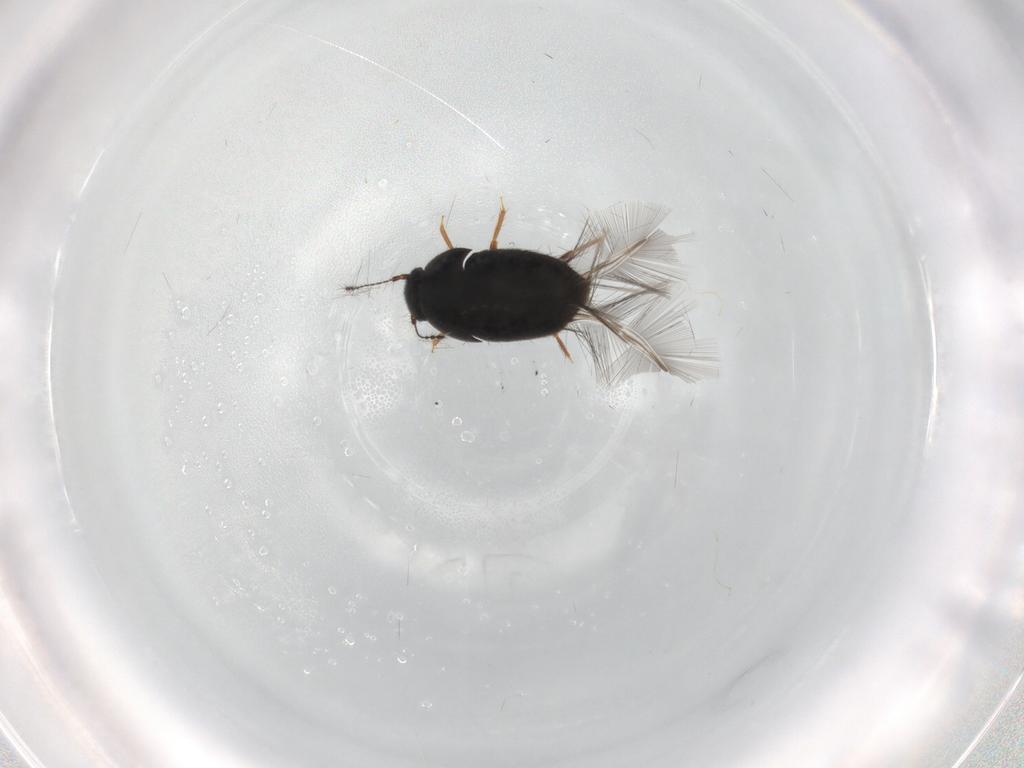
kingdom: Animalia
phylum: Arthropoda
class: Insecta
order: Coleoptera
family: Ptiliidae
